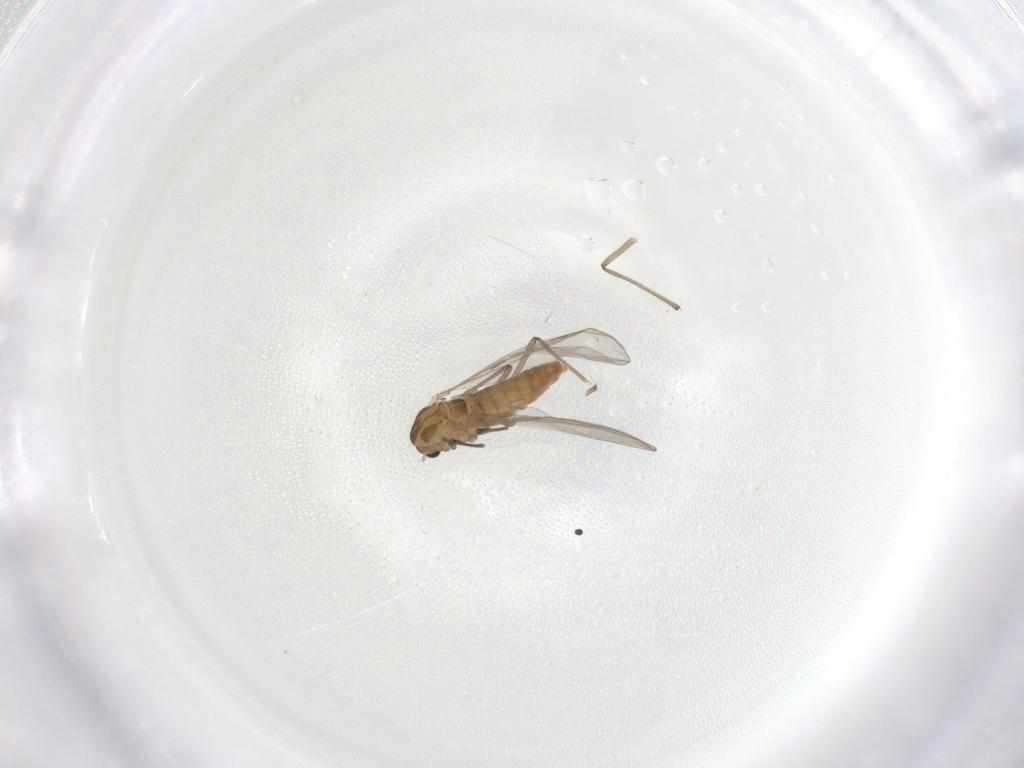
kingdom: Animalia
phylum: Arthropoda
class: Insecta
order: Diptera
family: Chironomidae
